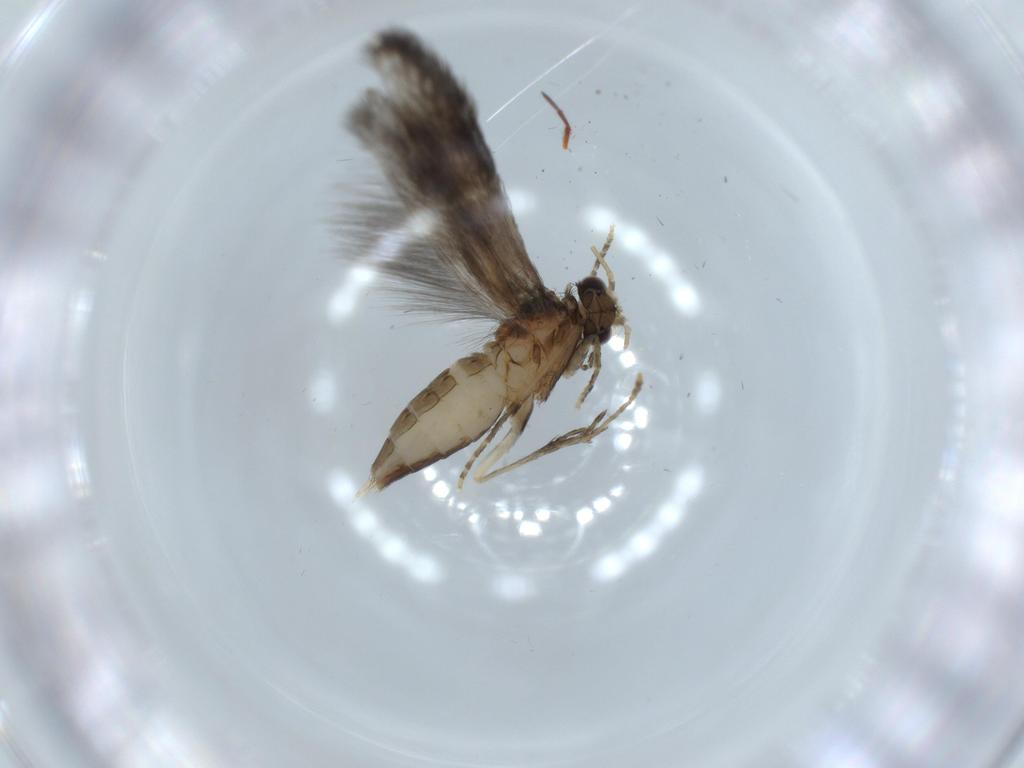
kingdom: Animalia
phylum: Arthropoda
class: Insecta
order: Trichoptera
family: Hydroptilidae
